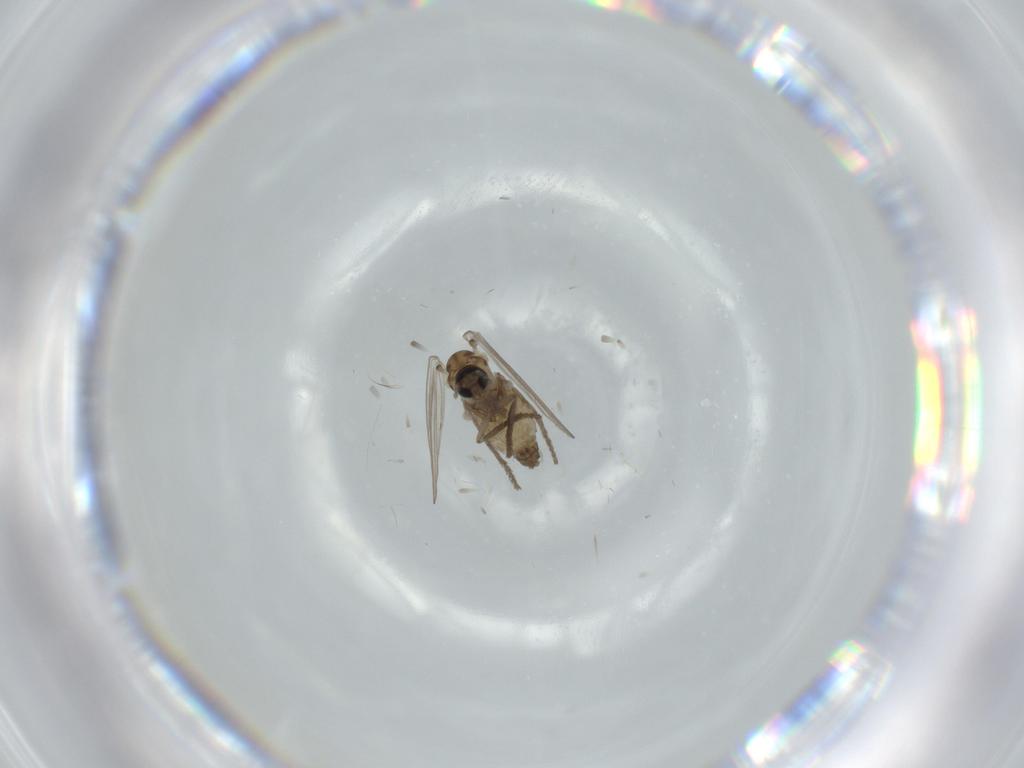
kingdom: Animalia
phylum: Arthropoda
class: Insecta
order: Diptera
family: Psychodidae
